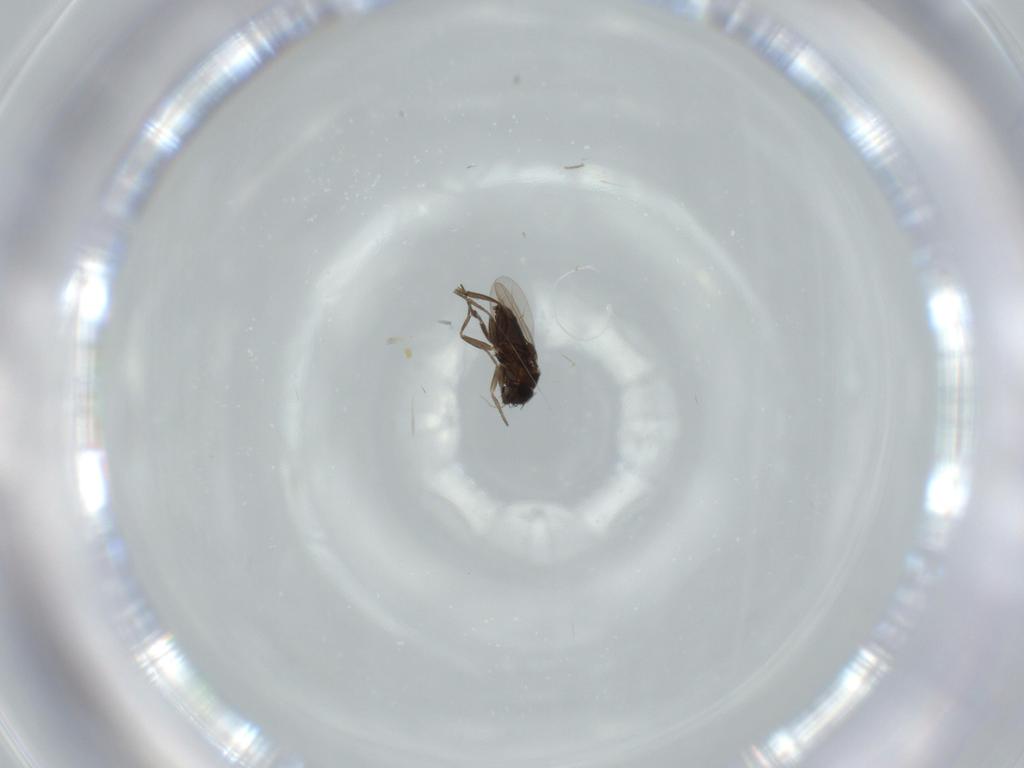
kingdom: Animalia
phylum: Arthropoda
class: Insecta
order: Diptera
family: Phoridae
